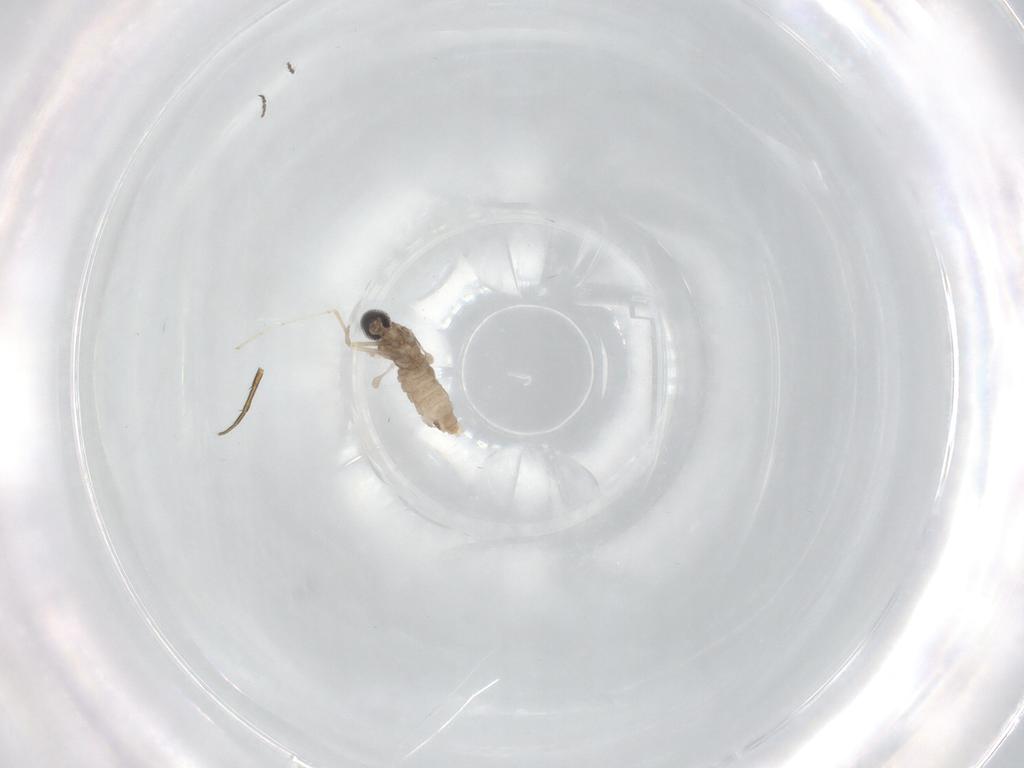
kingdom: Animalia
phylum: Arthropoda
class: Insecta
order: Diptera
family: Cecidomyiidae
